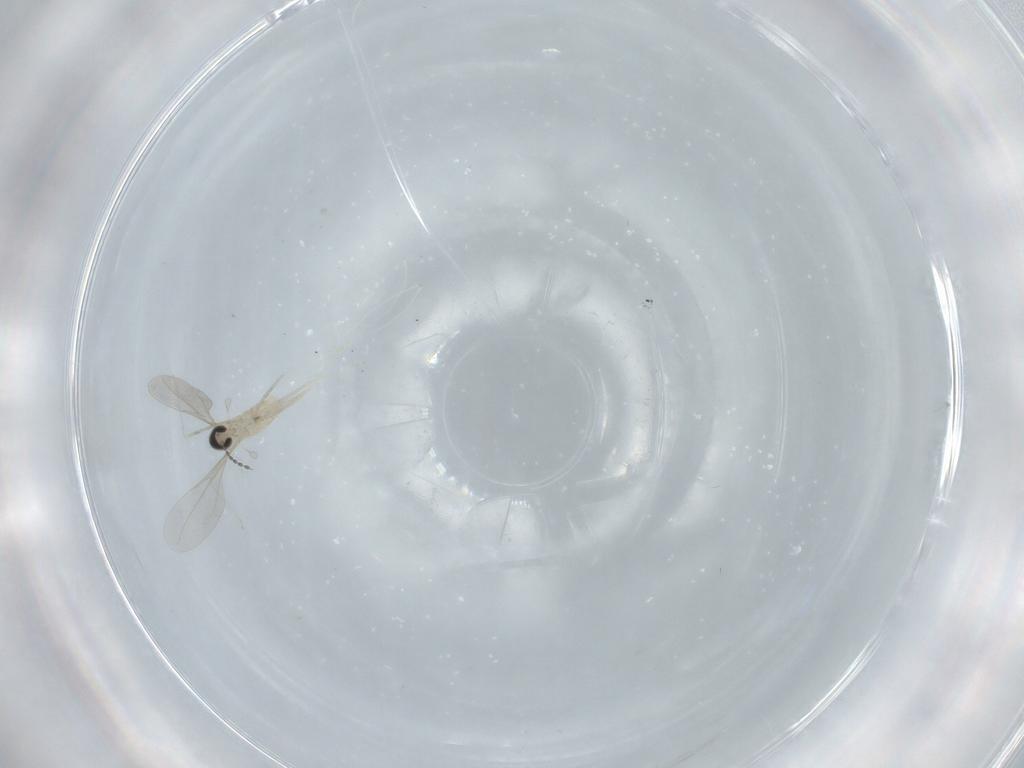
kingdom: Animalia
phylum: Arthropoda
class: Insecta
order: Diptera
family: Cecidomyiidae
